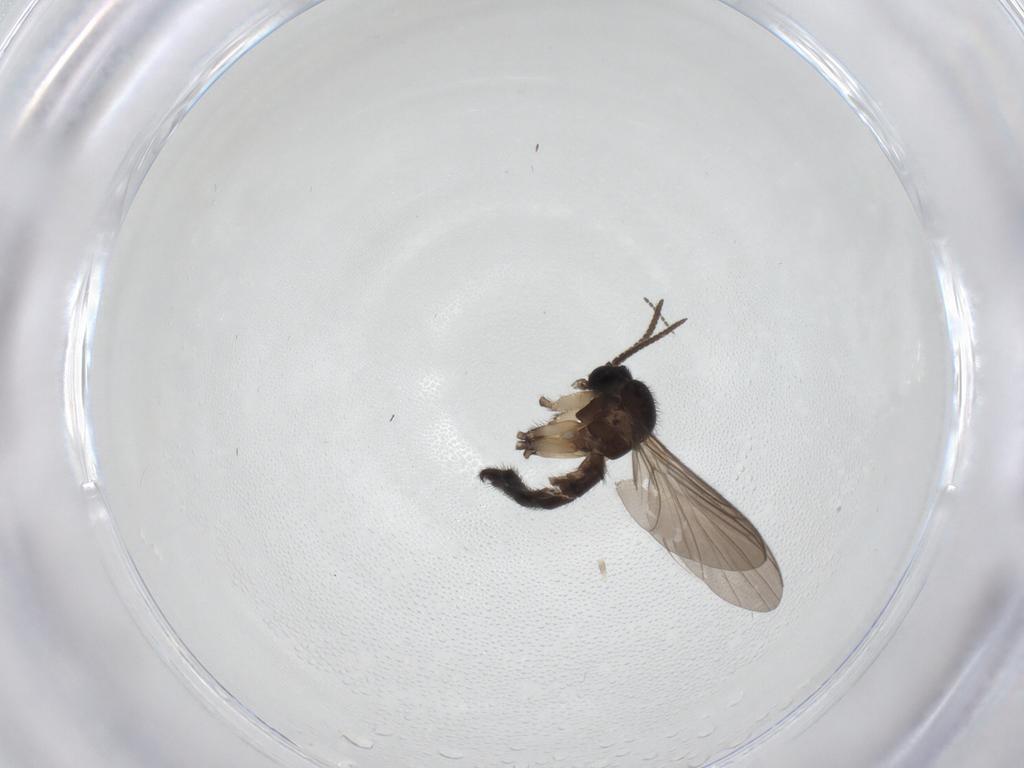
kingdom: Animalia
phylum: Arthropoda
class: Insecta
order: Diptera
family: Keroplatidae
